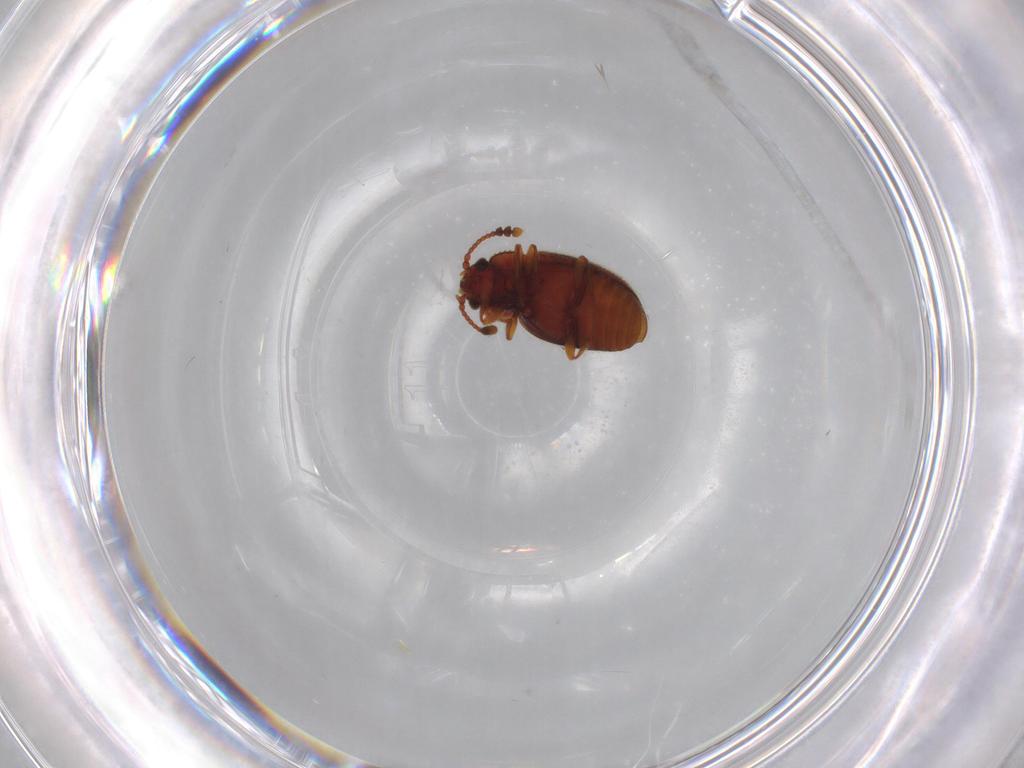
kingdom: Animalia
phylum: Arthropoda
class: Insecta
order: Coleoptera
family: Cryptophagidae
